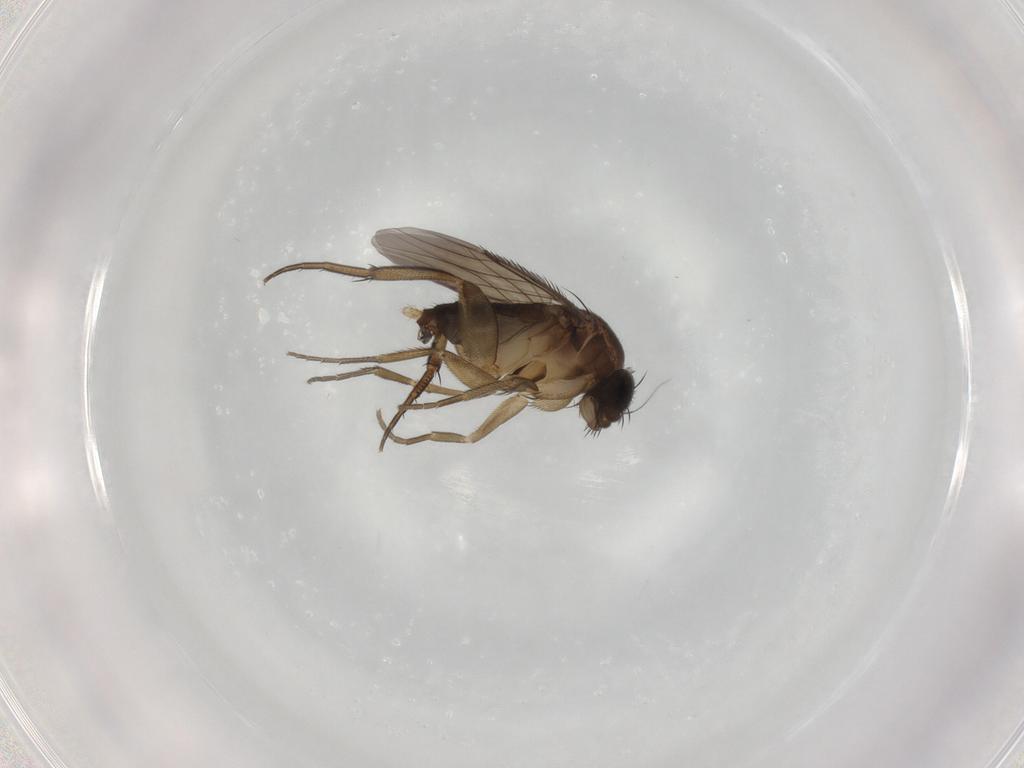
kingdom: Animalia
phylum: Arthropoda
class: Insecta
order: Diptera
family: Phoridae
